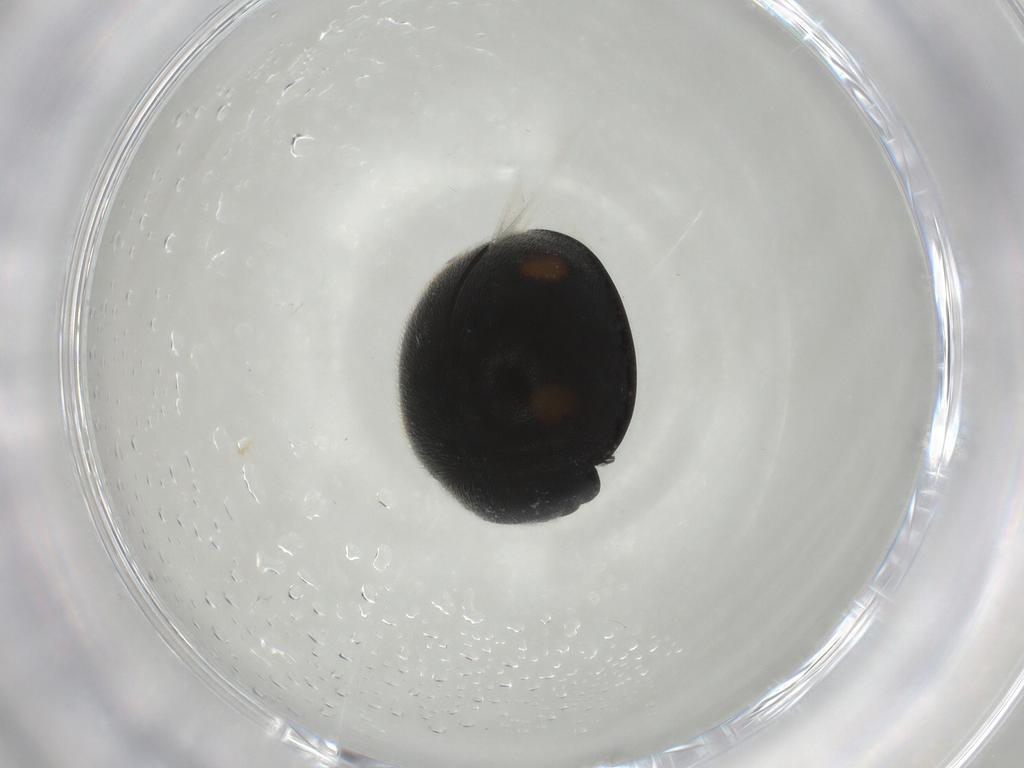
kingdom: Animalia
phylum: Arthropoda
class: Insecta
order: Coleoptera
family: Coccinellidae
